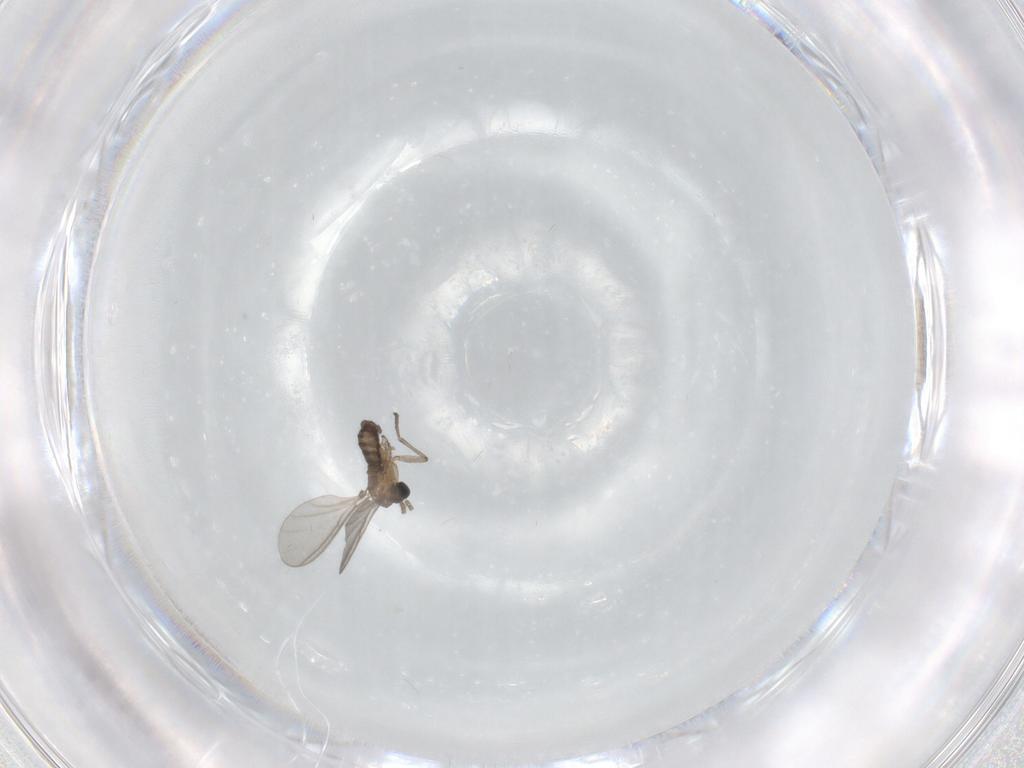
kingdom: Animalia
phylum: Arthropoda
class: Insecta
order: Diptera
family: Sciaridae
